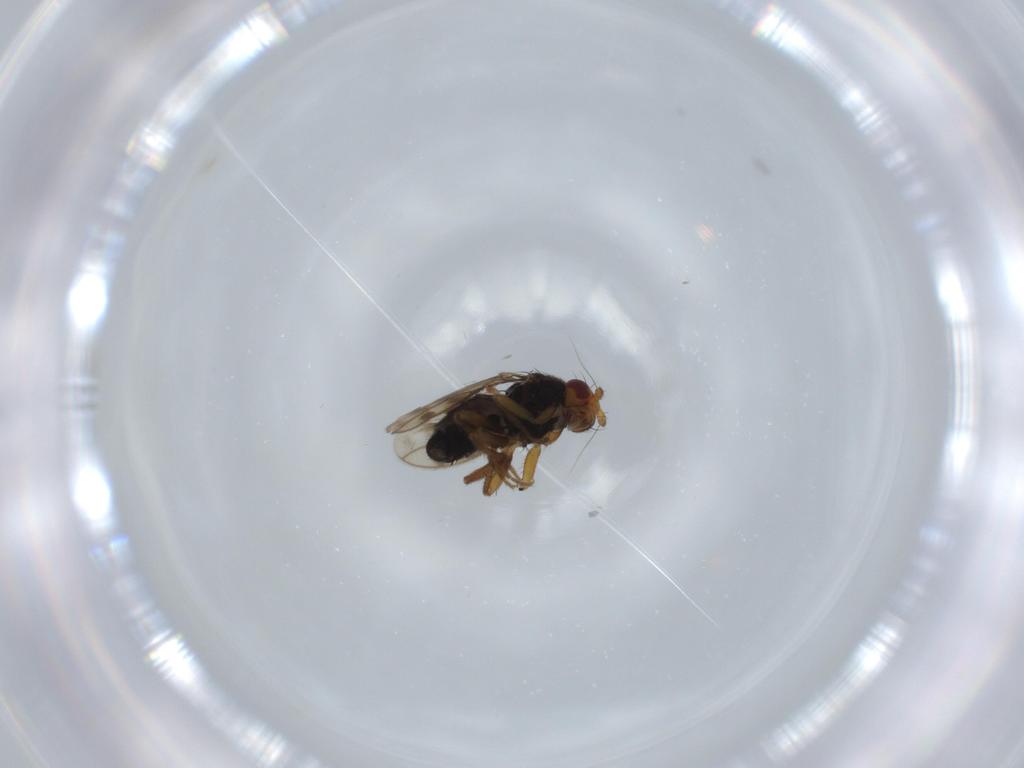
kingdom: Animalia
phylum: Arthropoda
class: Insecta
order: Diptera
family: Sphaeroceridae
